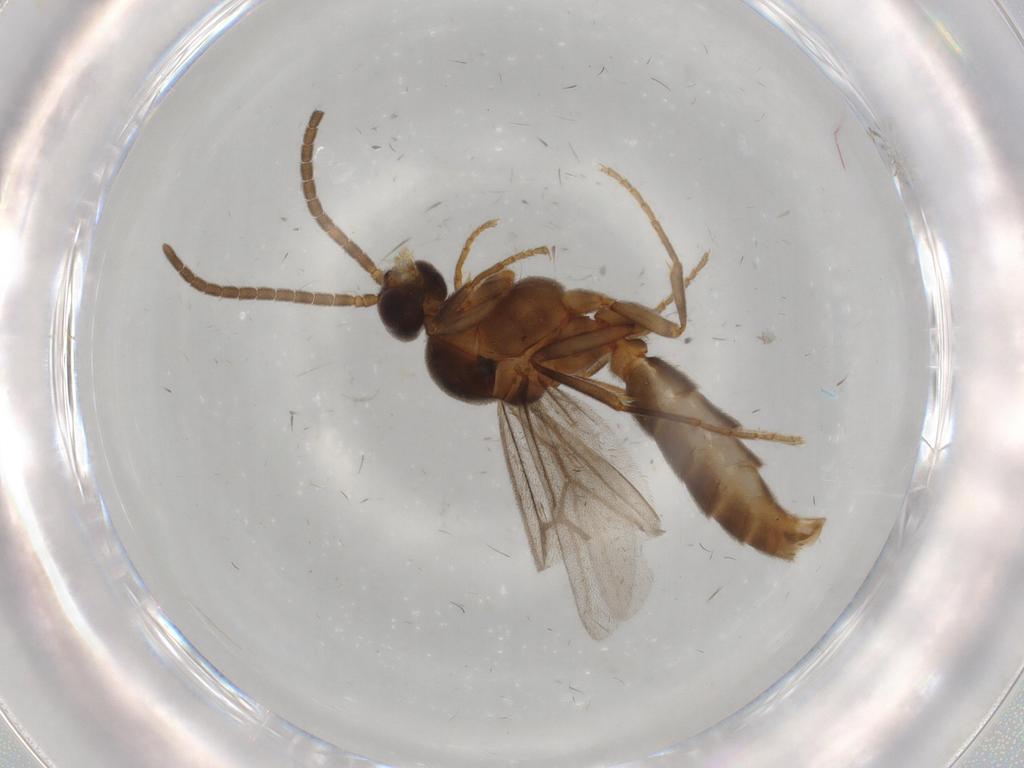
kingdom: Animalia
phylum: Arthropoda
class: Insecta
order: Hymenoptera
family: Formicidae
